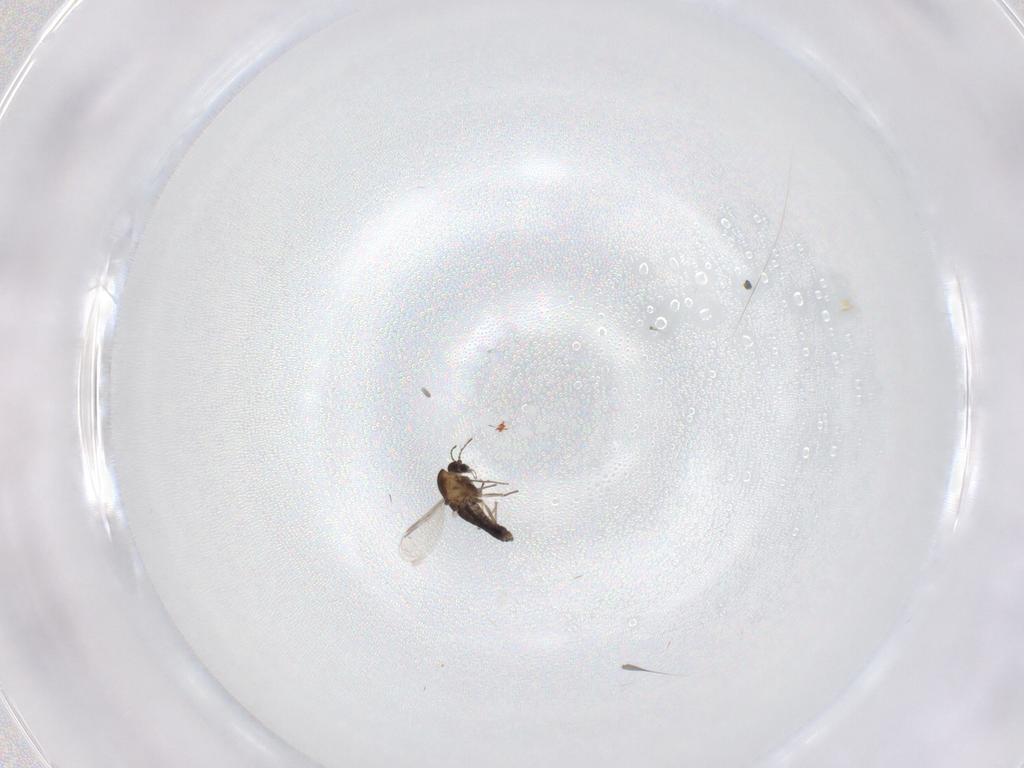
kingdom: Animalia
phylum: Arthropoda
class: Insecta
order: Diptera
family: Chironomidae
